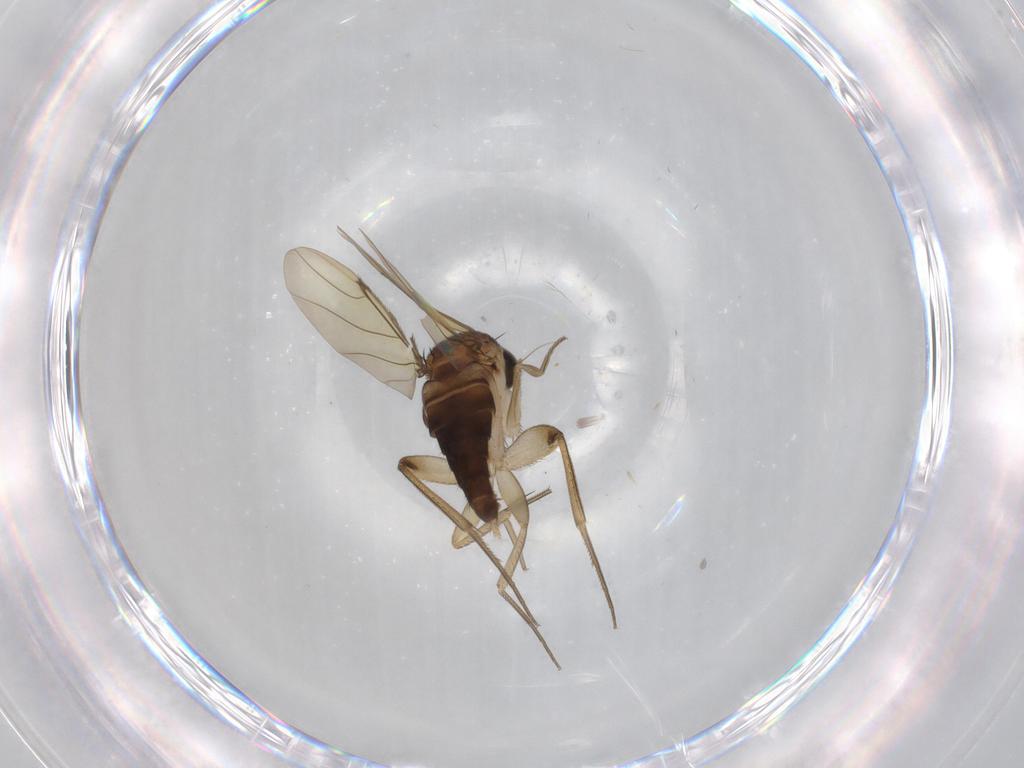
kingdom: Animalia
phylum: Arthropoda
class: Insecta
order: Diptera
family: Phoridae
